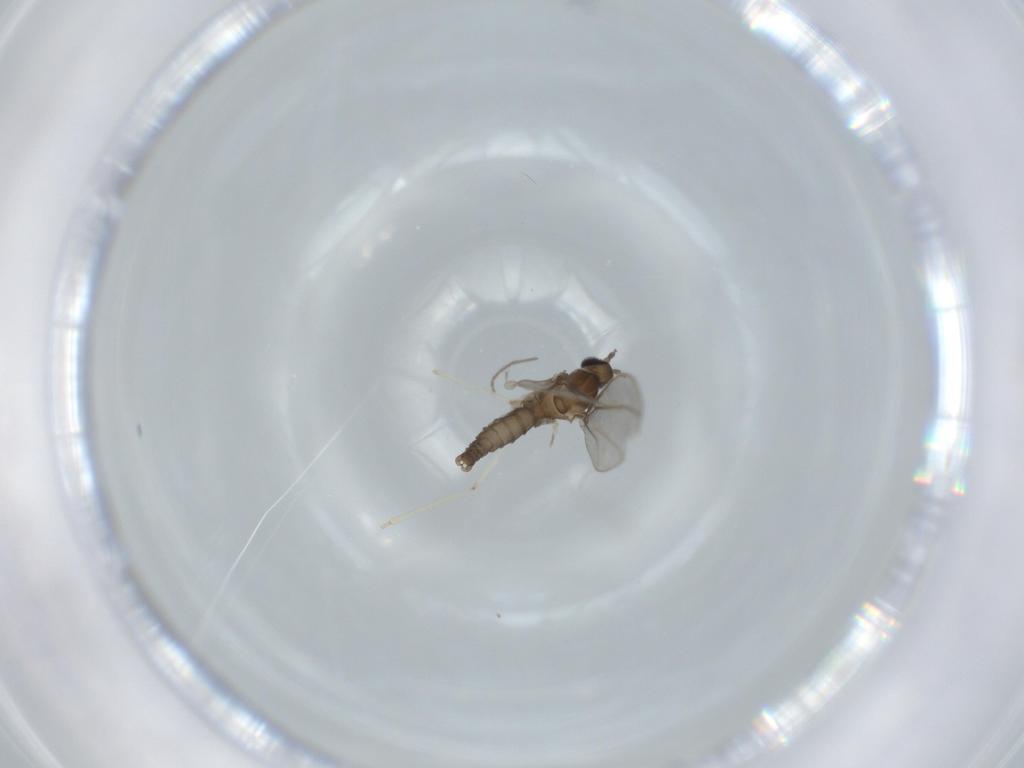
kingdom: Animalia
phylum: Arthropoda
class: Insecta
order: Diptera
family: Cecidomyiidae
